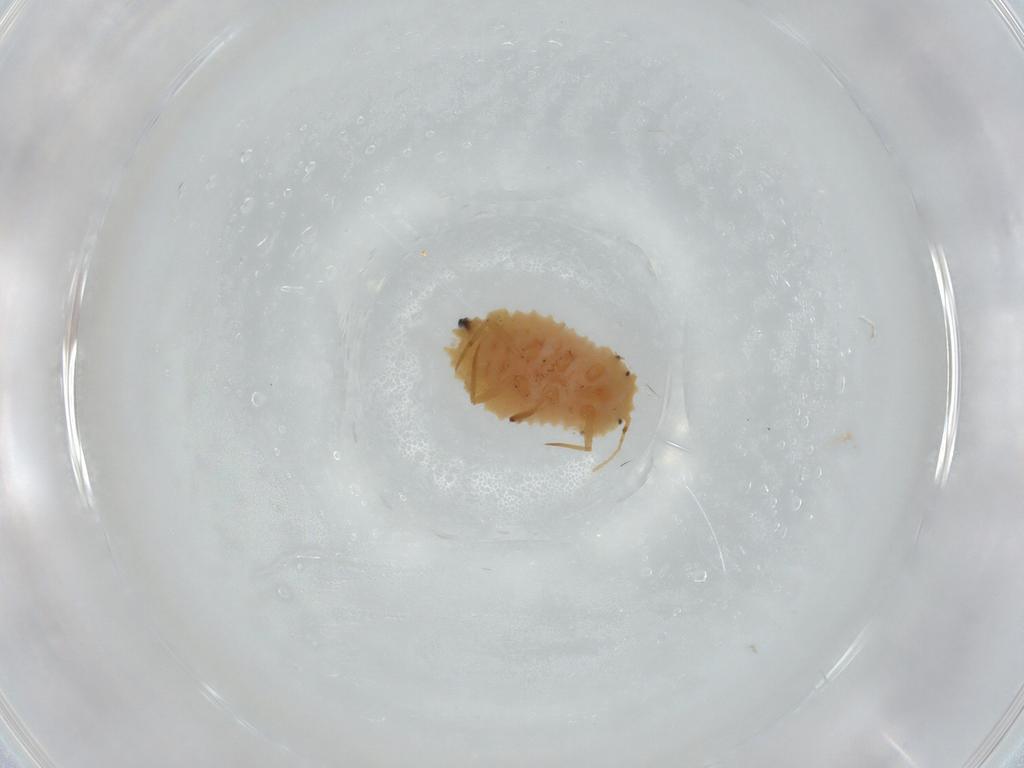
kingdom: Animalia
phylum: Arthropoda
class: Insecta
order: Hemiptera
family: Pseudococcidae
